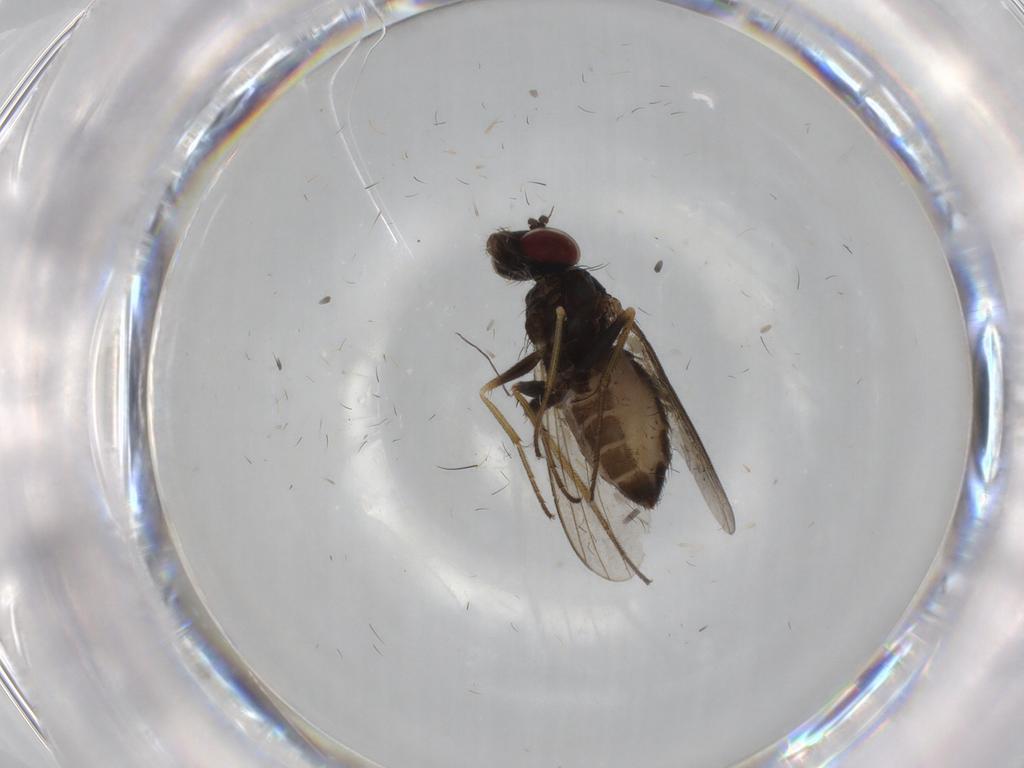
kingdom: Animalia
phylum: Arthropoda
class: Insecta
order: Diptera
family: Dolichopodidae
